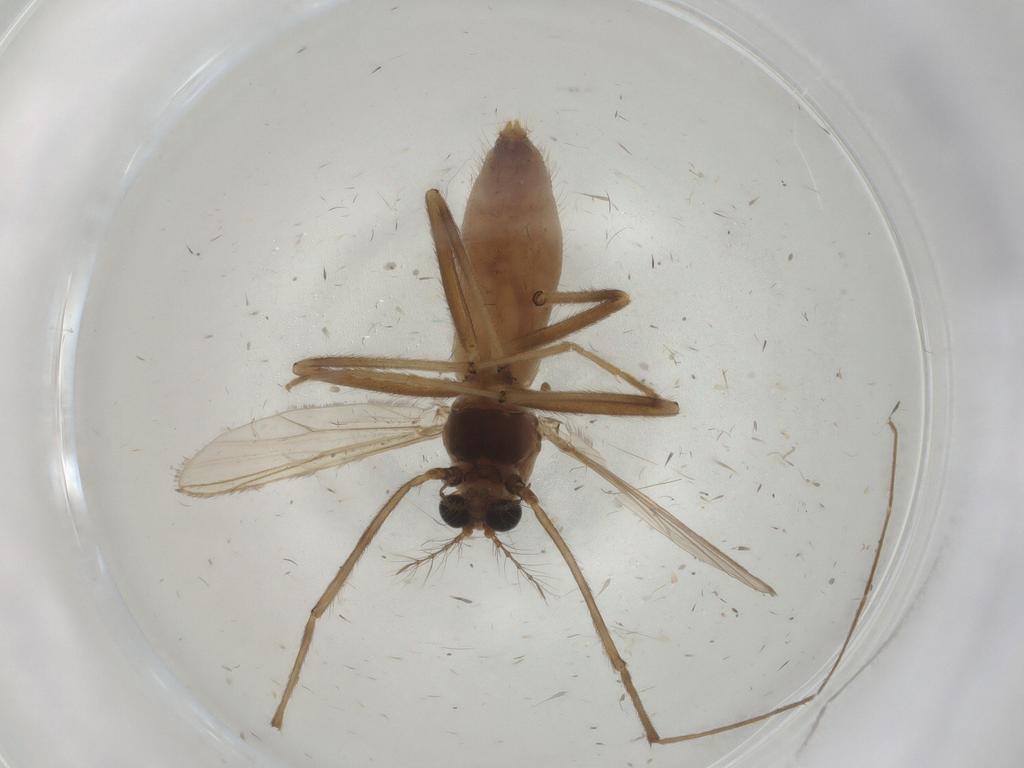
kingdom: Animalia
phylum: Arthropoda
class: Insecta
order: Diptera
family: Chironomidae
